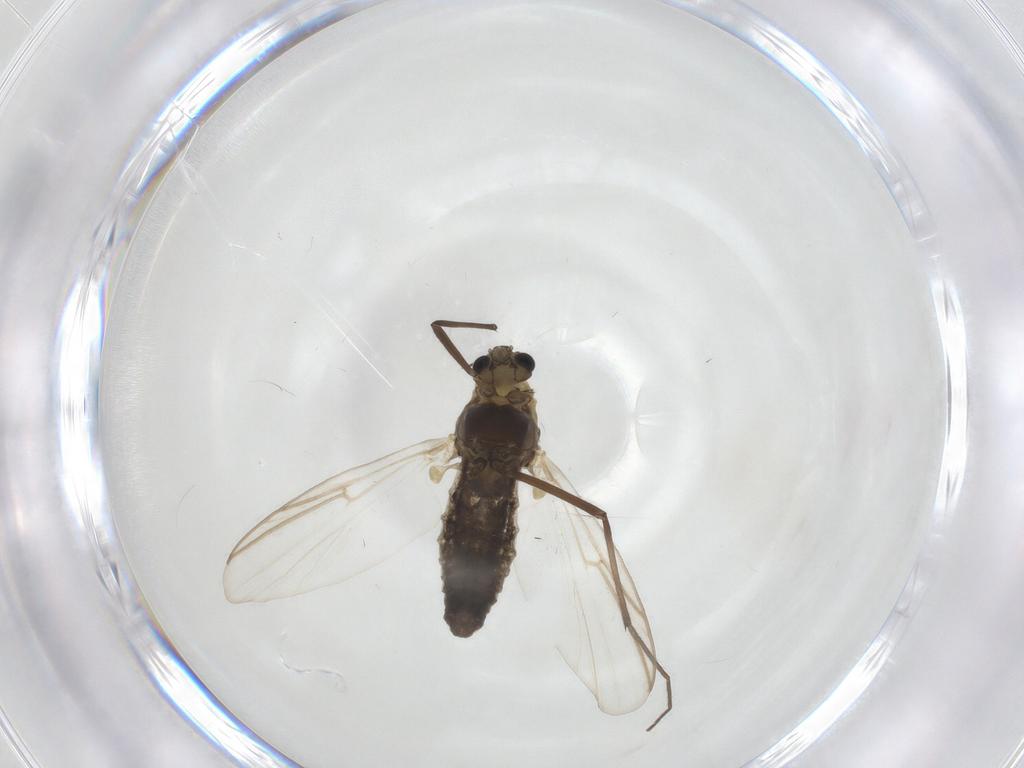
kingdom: Animalia
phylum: Arthropoda
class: Insecta
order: Diptera
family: Chironomidae
